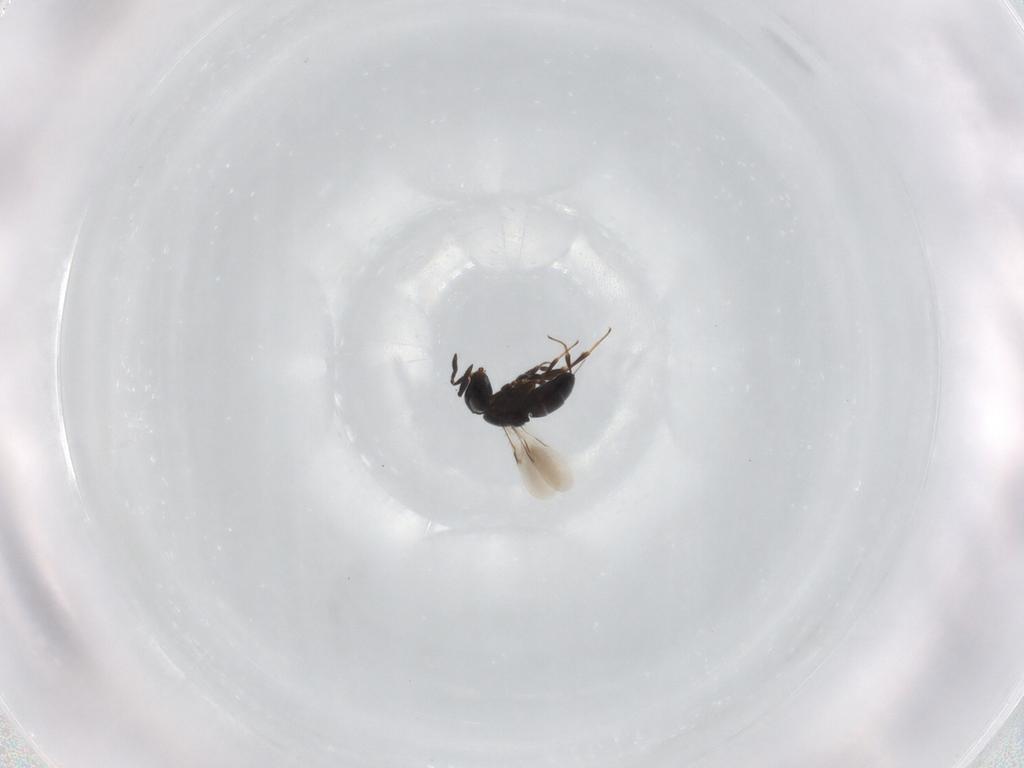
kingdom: Animalia
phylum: Arthropoda
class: Insecta
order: Hymenoptera
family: Scelionidae
